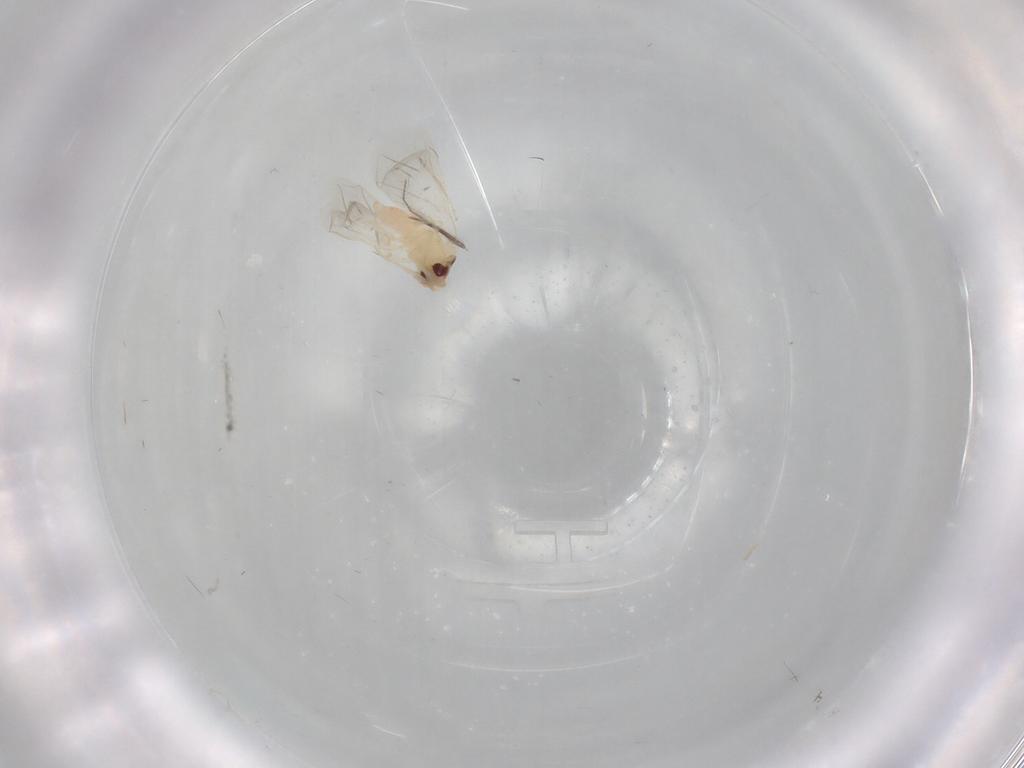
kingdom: Animalia
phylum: Arthropoda
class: Insecta
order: Hemiptera
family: Aleyrodidae
